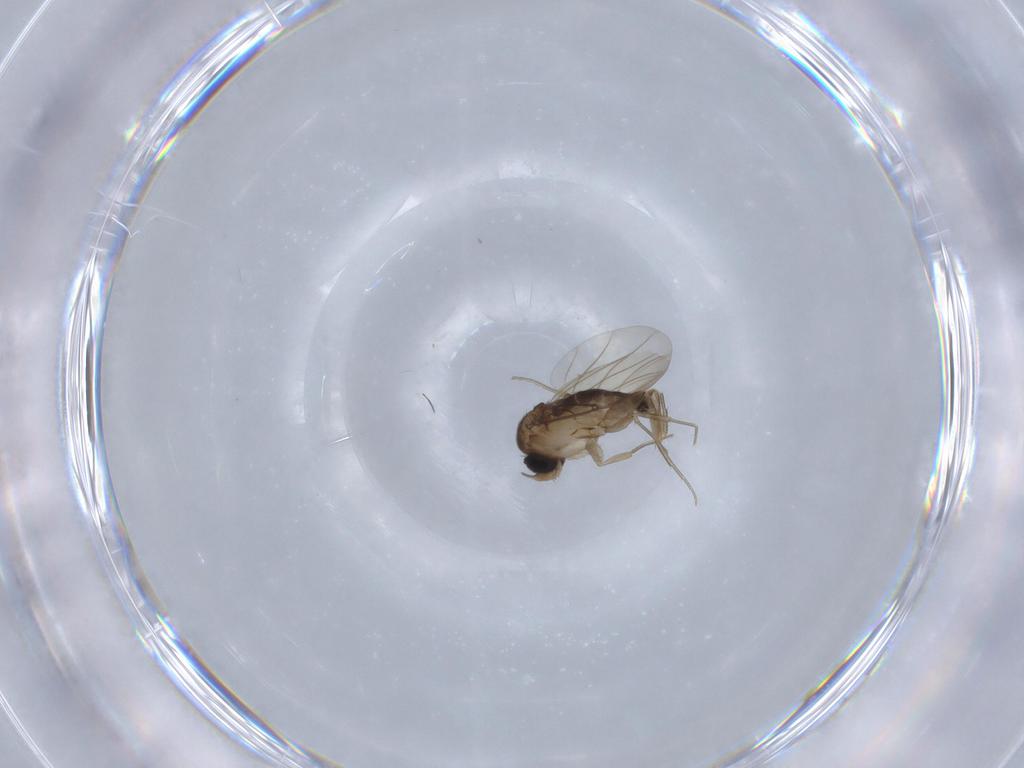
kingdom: Animalia
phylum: Arthropoda
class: Insecta
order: Diptera
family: Phoridae
